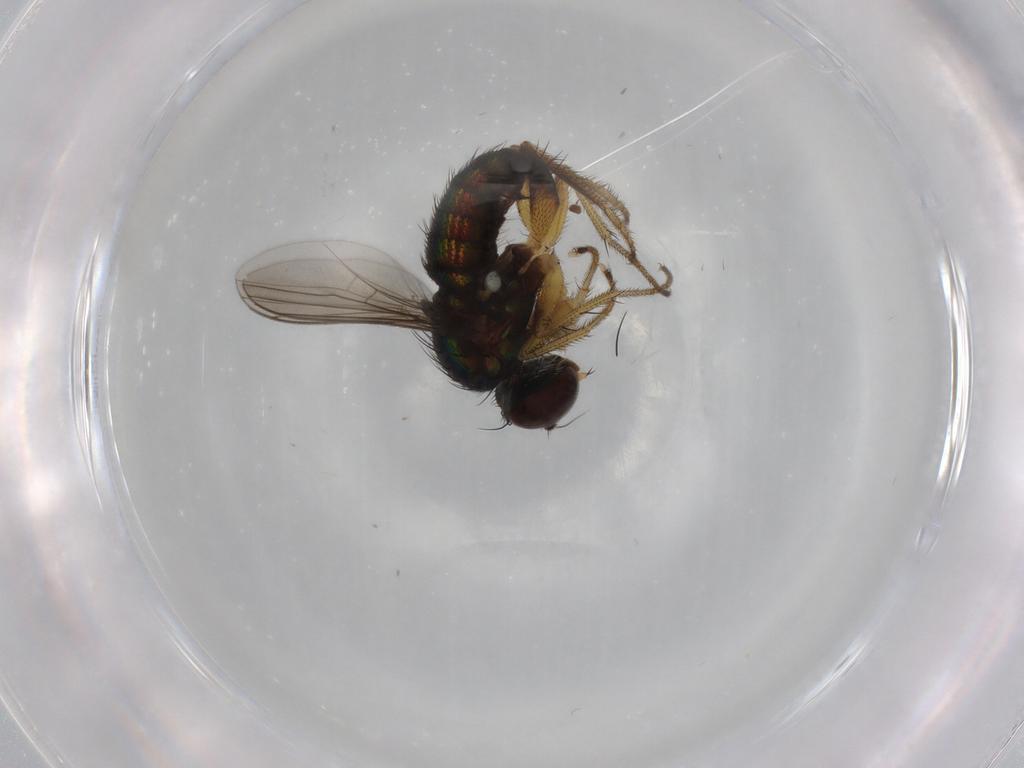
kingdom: Animalia
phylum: Arthropoda
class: Insecta
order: Diptera
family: Dolichopodidae
